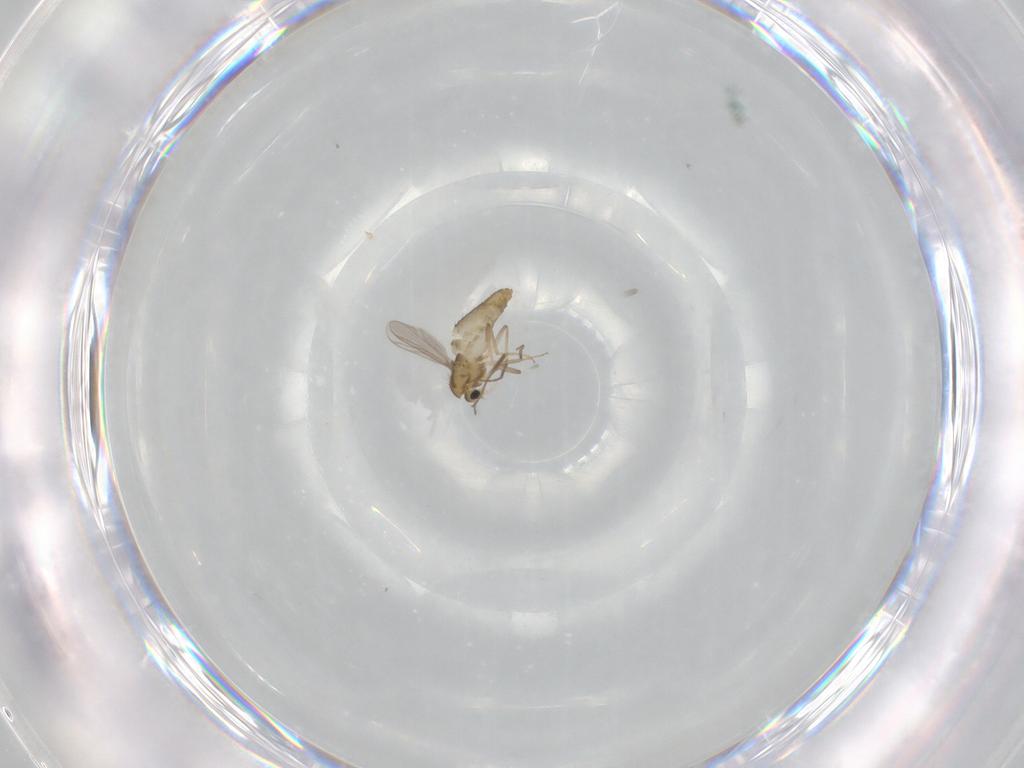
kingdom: Animalia
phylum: Arthropoda
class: Insecta
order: Diptera
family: Chironomidae
